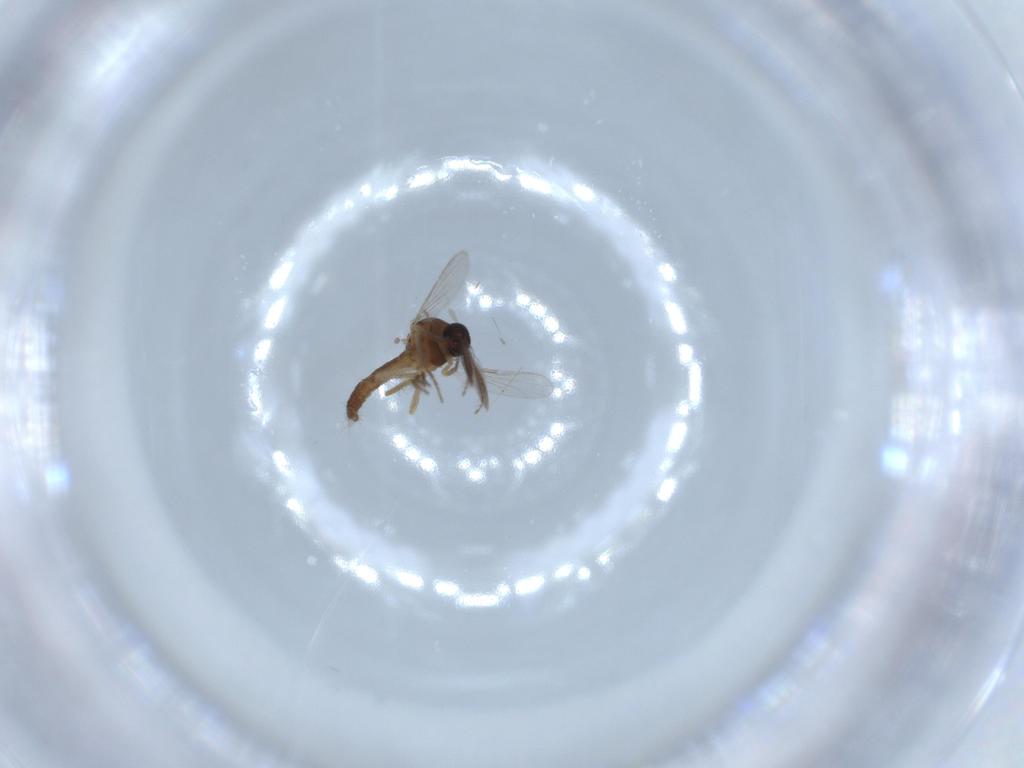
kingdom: Animalia
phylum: Arthropoda
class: Insecta
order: Diptera
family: Ceratopogonidae
